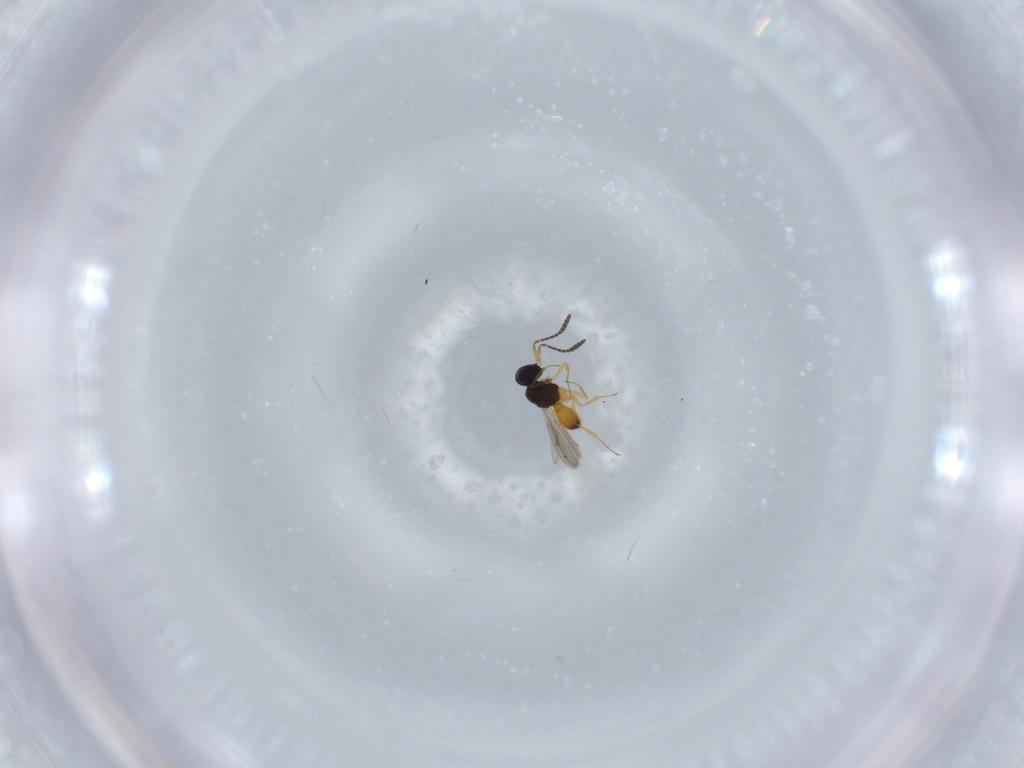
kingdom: Animalia
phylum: Arthropoda
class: Insecta
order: Hymenoptera
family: Scelionidae
